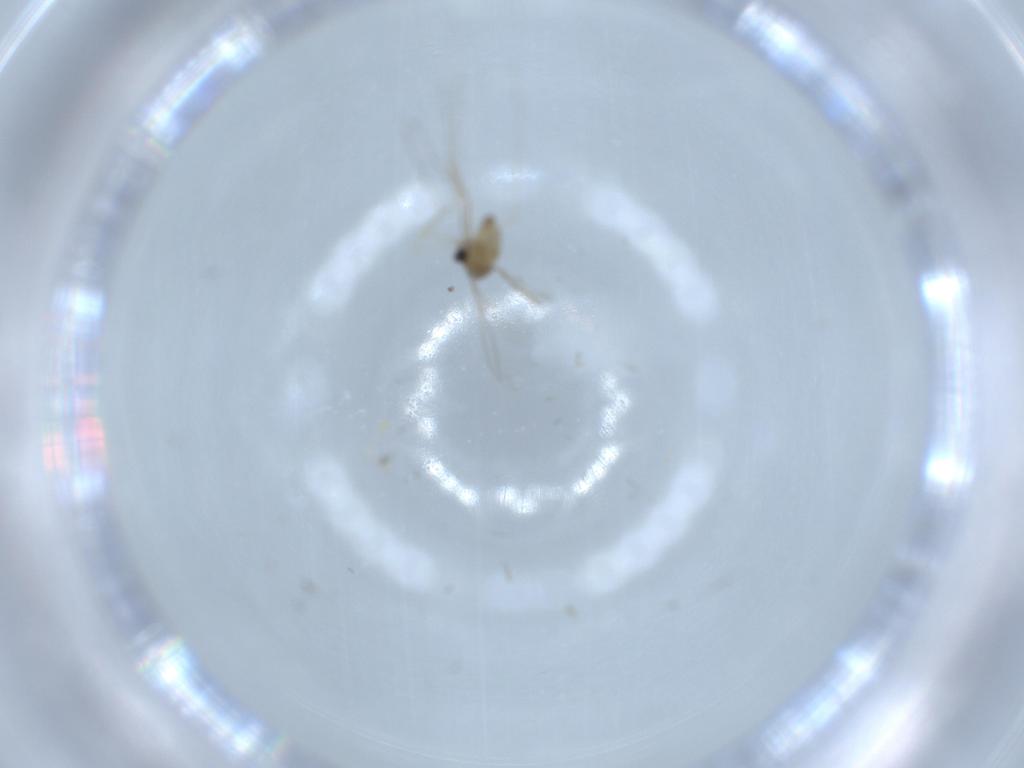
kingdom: Animalia
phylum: Arthropoda
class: Insecta
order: Diptera
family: Cecidomyiidae
